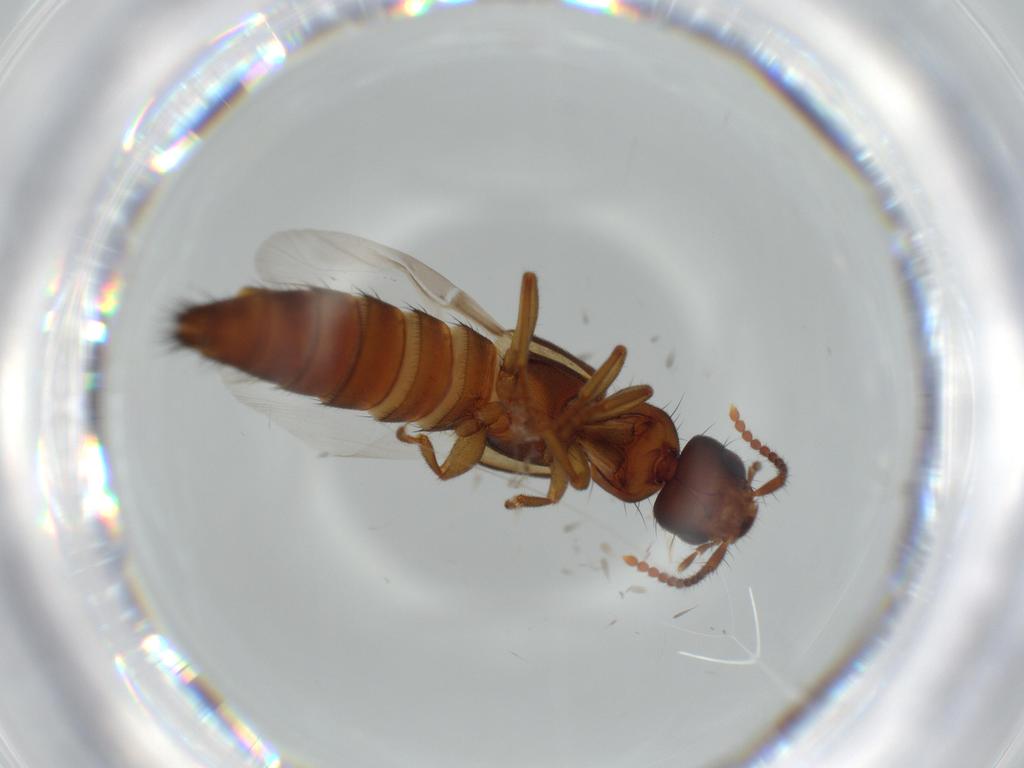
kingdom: Animalia
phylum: Arthropoda
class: Insecta
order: Coleoptera
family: Staphylinidae
